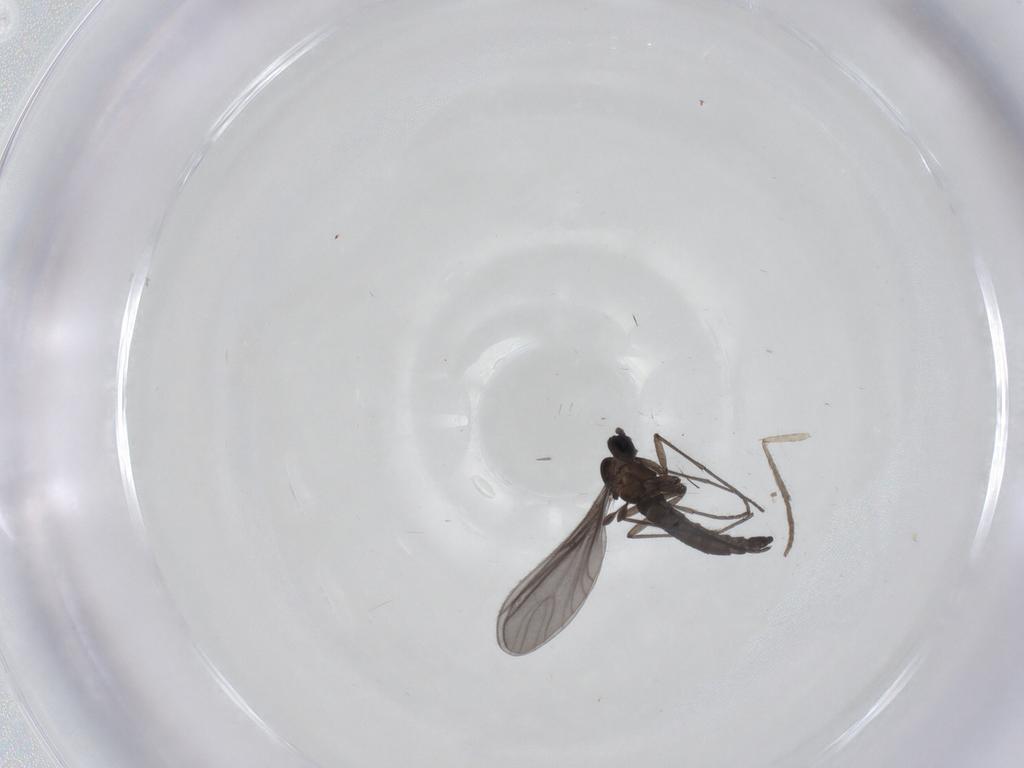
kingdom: Animalia
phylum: Arthropoda
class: Insecta
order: Diptera
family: Sciaridae
